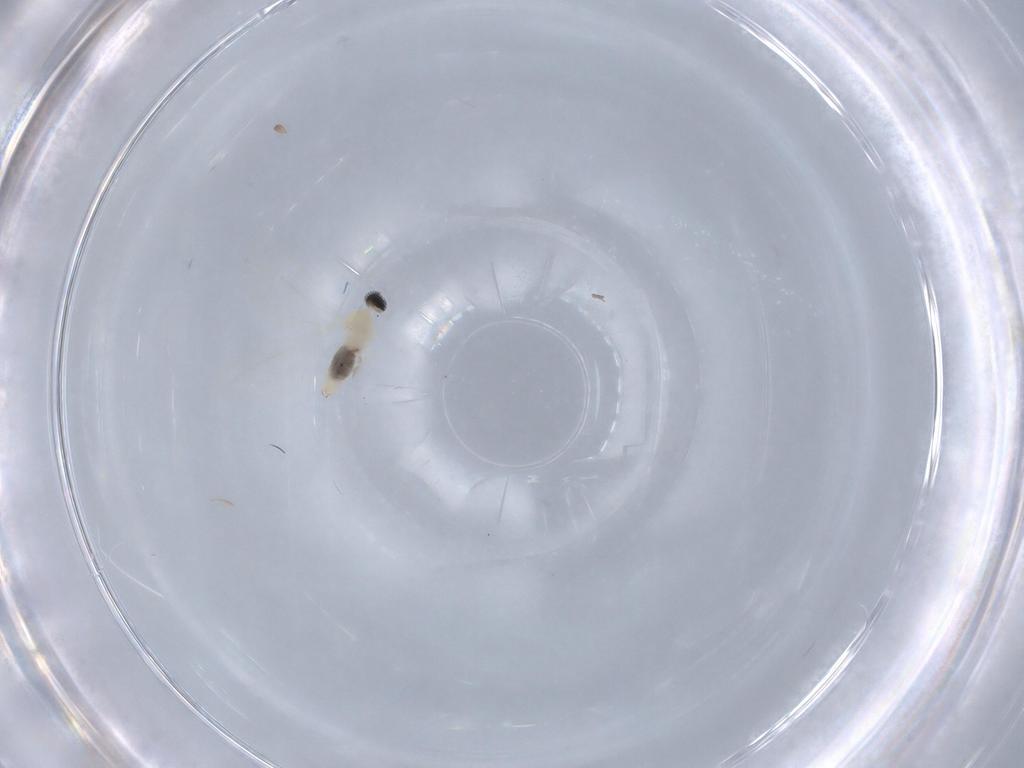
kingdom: Animalia
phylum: Arthropoda
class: Insecta
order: Diptera
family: Cecidomyiidae
